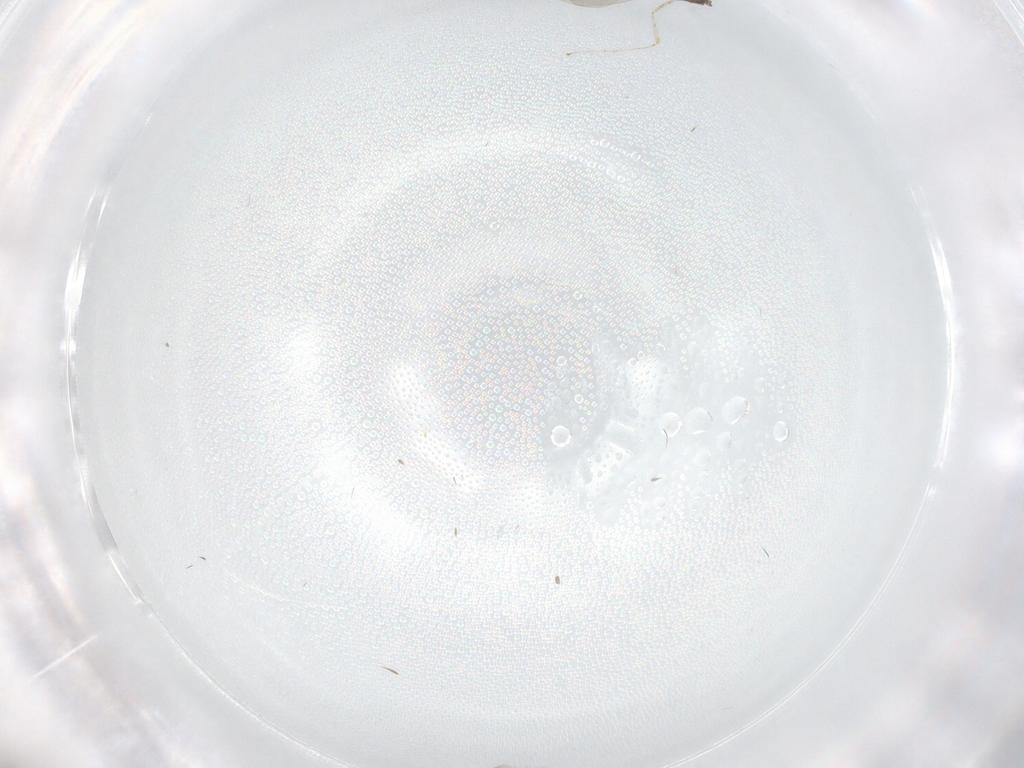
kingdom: Animalia
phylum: Arthropoda
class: Insecta
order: Diptera
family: Cecidomyiidae
